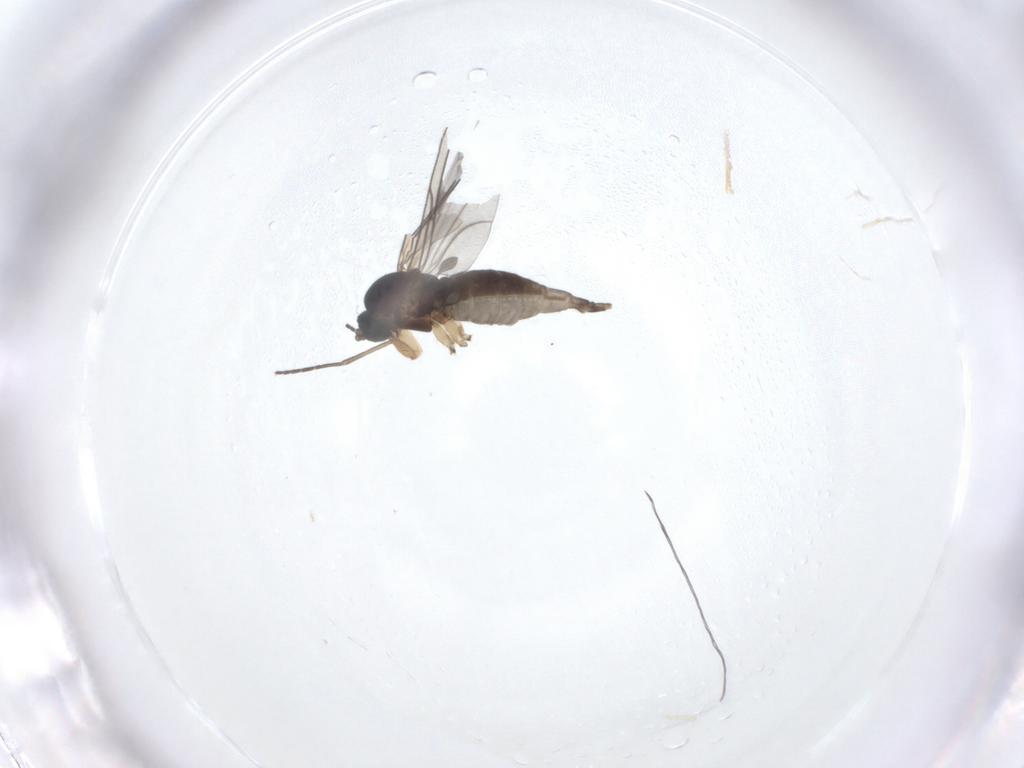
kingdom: Animalia
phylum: Arthropoda
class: Insecta
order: Diptera
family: Sciaridae
